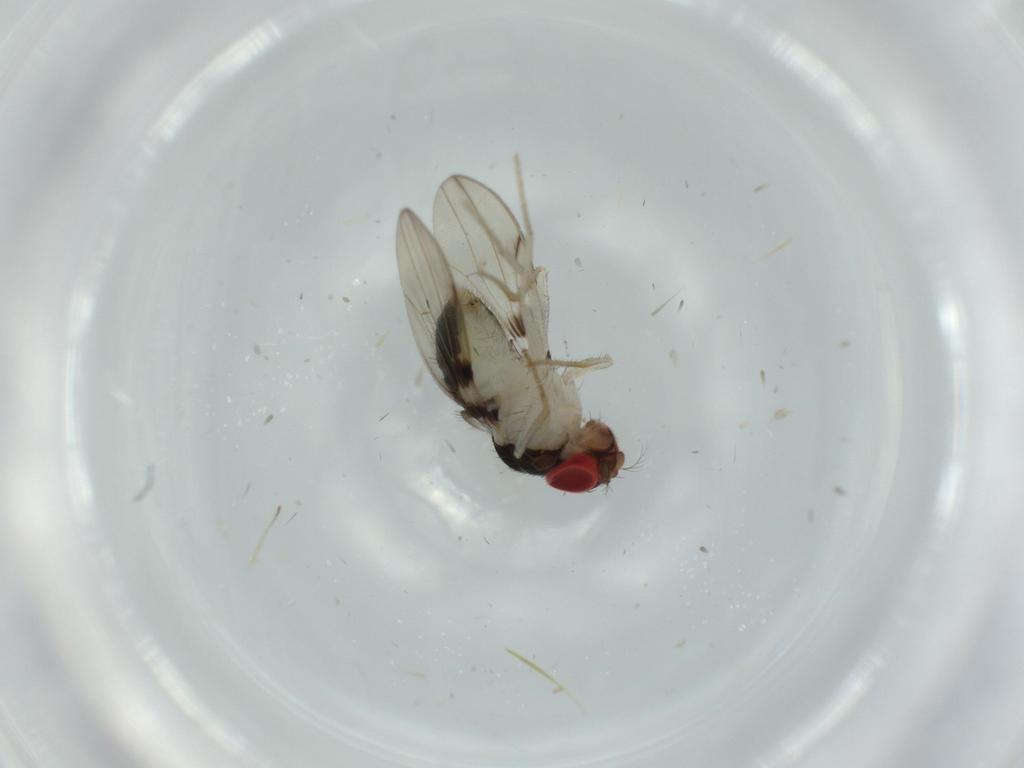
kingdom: Animalia
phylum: Arthropoda
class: Insecta
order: Diptera
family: Drosophilidae
